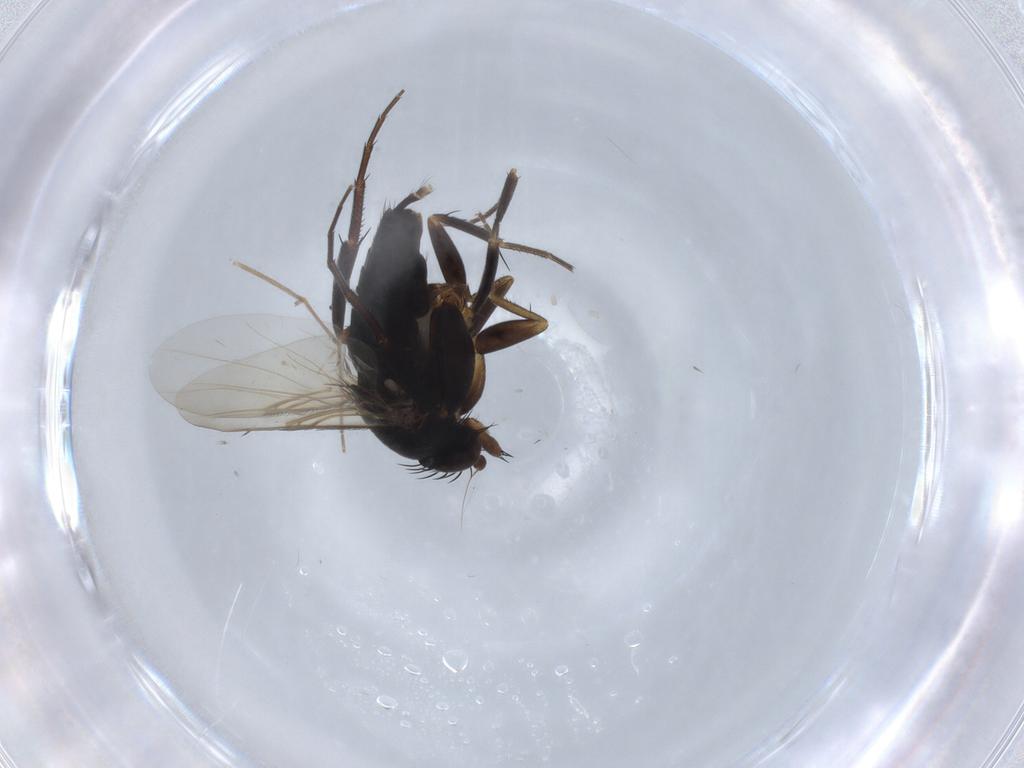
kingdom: Animalia
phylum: Arthropoda
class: Insecta
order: Diptera
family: Phoridae
